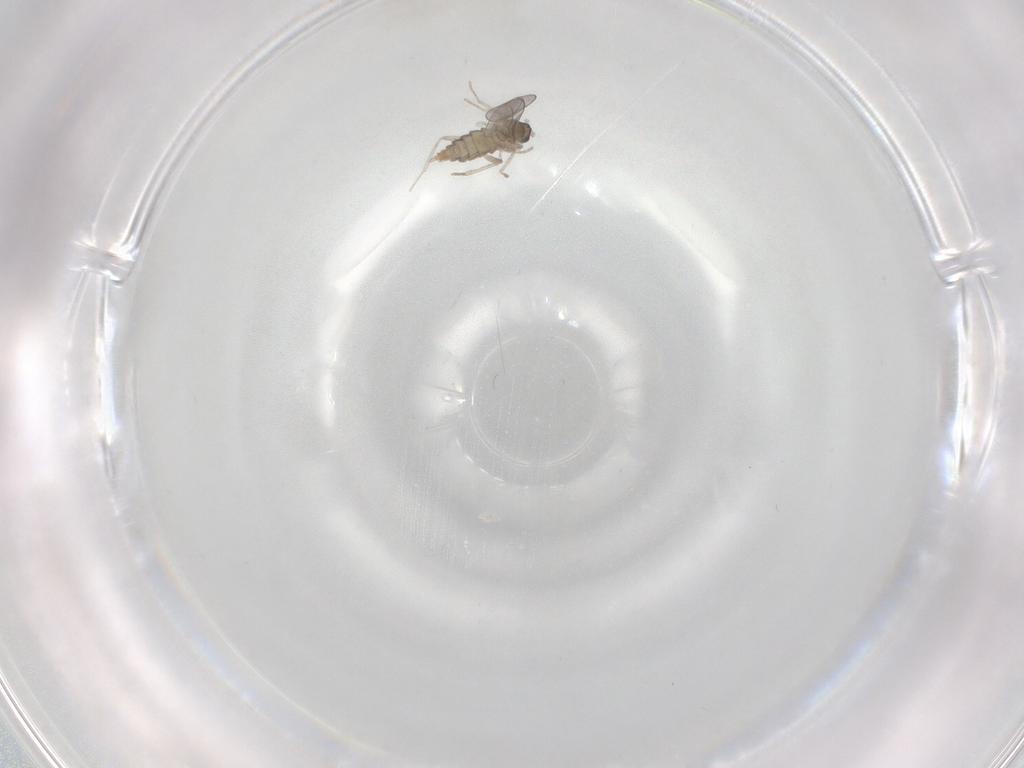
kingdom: Animalia
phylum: Arthropoda
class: Insecta
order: Diptera
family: Cecidomyiidae
